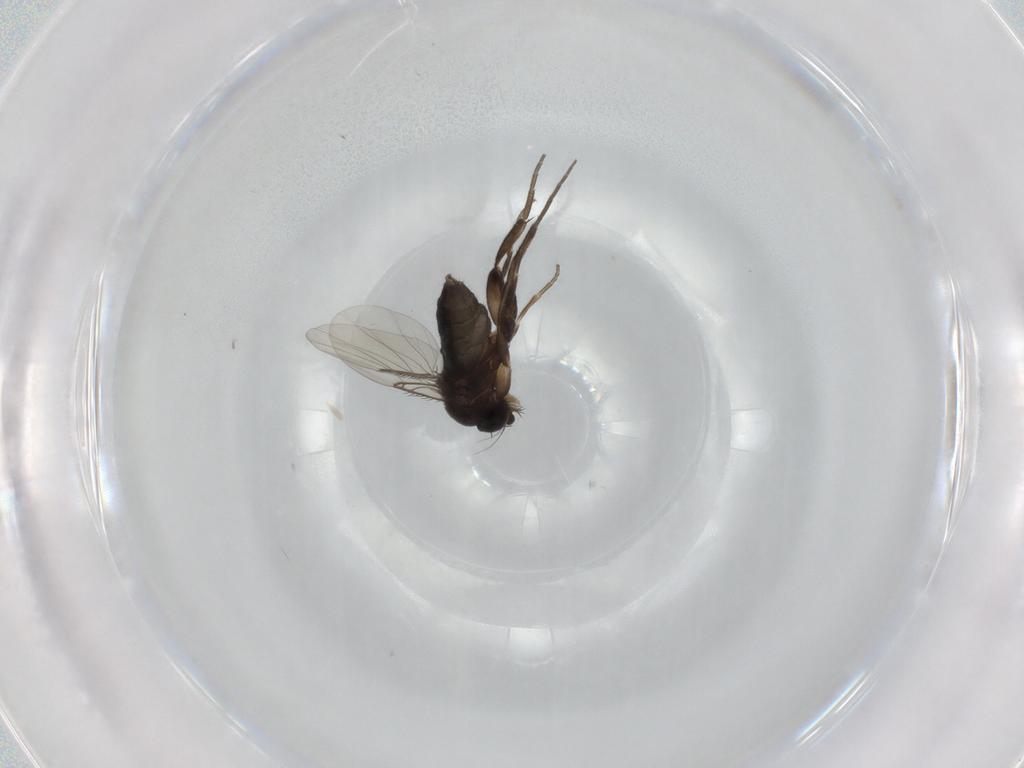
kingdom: Animalia
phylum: Arthropoda
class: Insecta
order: Diptera
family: Phoridae
